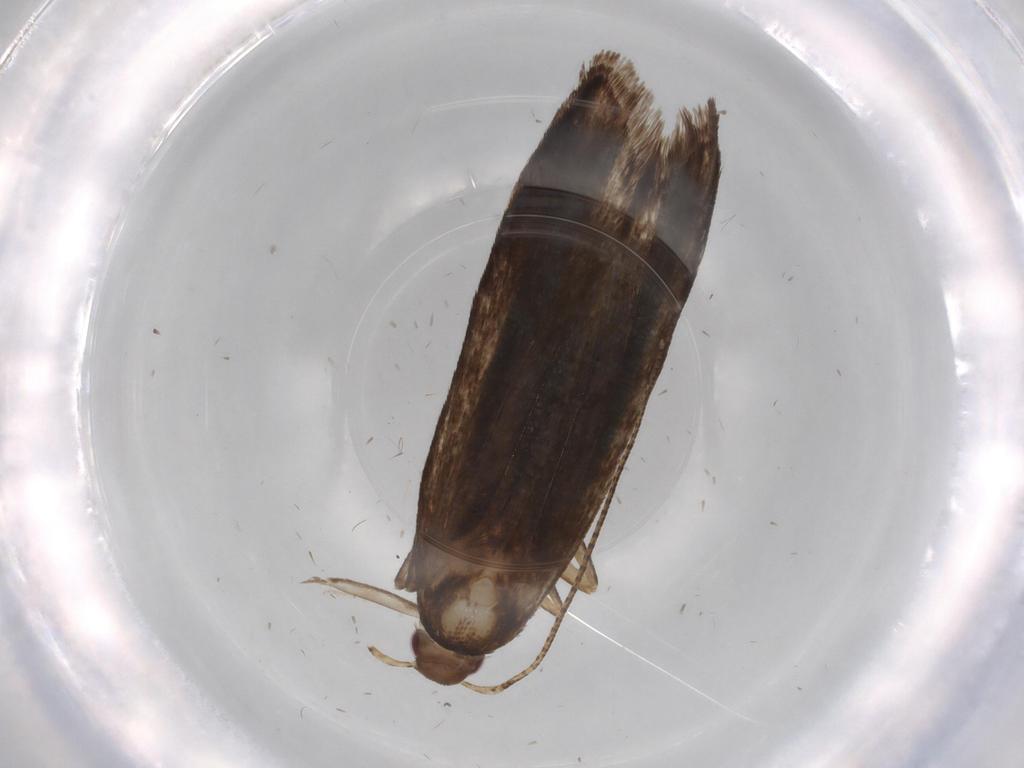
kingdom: Animalia
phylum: Arthropoda
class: Insecta
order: Lepidoptera
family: Gelechiidae
